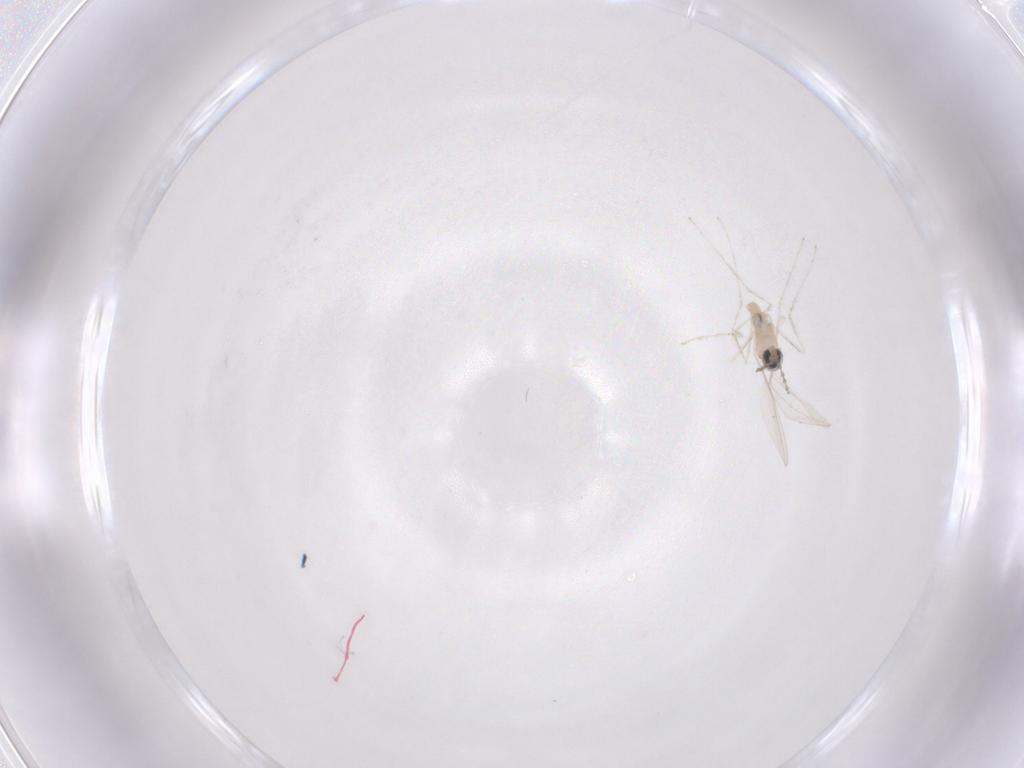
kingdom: Animalia
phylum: Arthropoda
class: Insecta
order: Diptera
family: Cecidomyiidae
